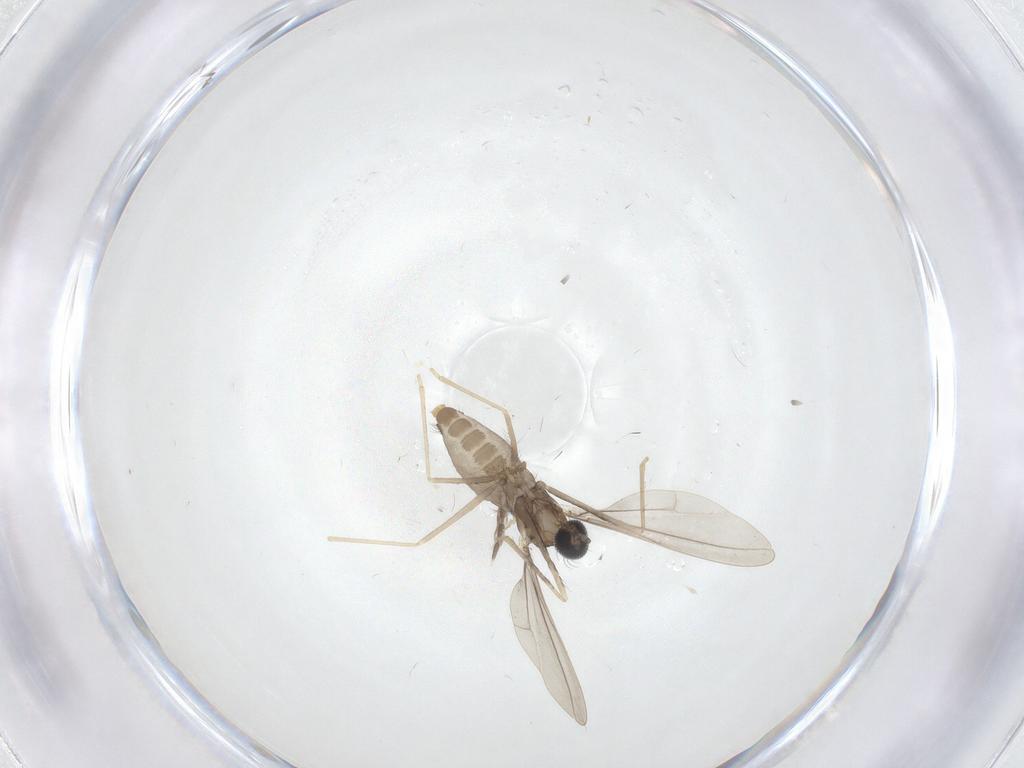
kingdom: Animalia
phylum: Arthropoda
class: Insecta
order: Diptera
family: Cecidomyiidae
